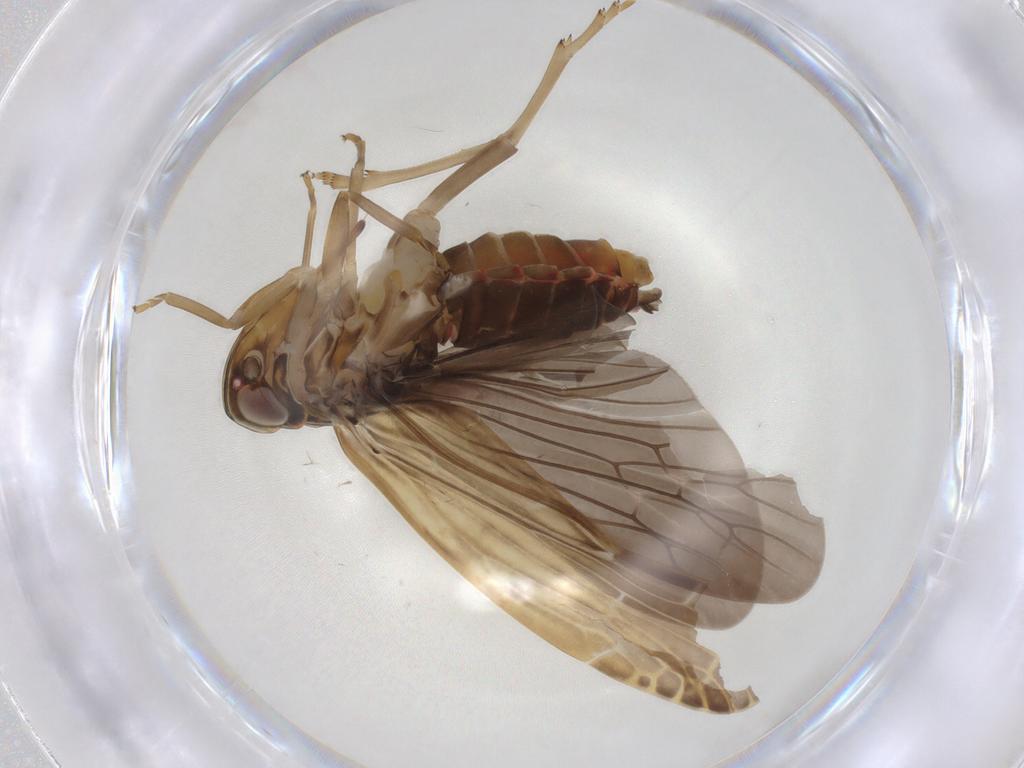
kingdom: Animalia
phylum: Arthropoda
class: Insecta
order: Hemiptera
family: Achilidae
